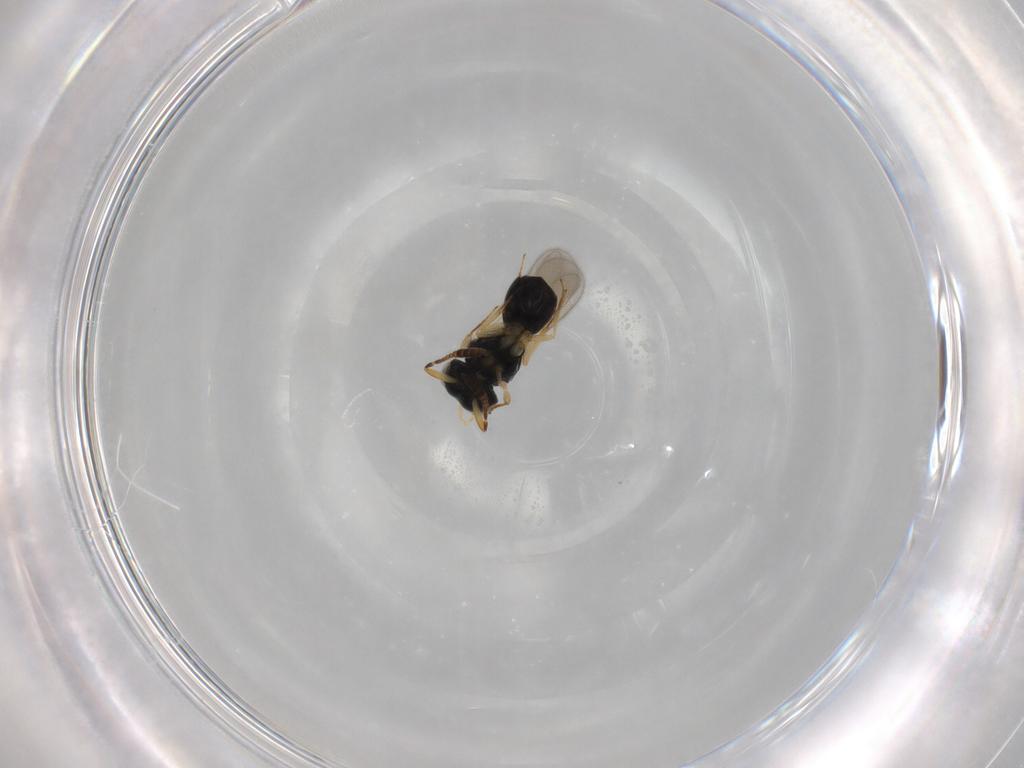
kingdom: Animalia
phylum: Arthropoda
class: Insecta
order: Hymenoptera
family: Scelionidae
